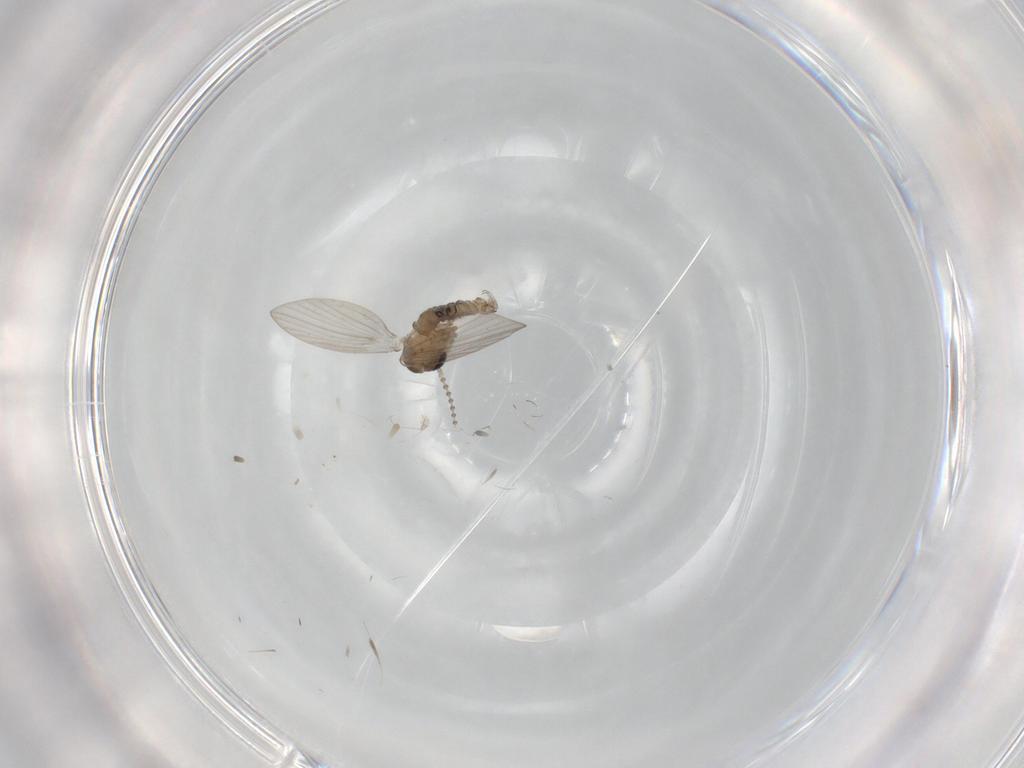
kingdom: Animalia
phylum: Arthropoda
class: Insecta
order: Diptera
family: Psychodidae
